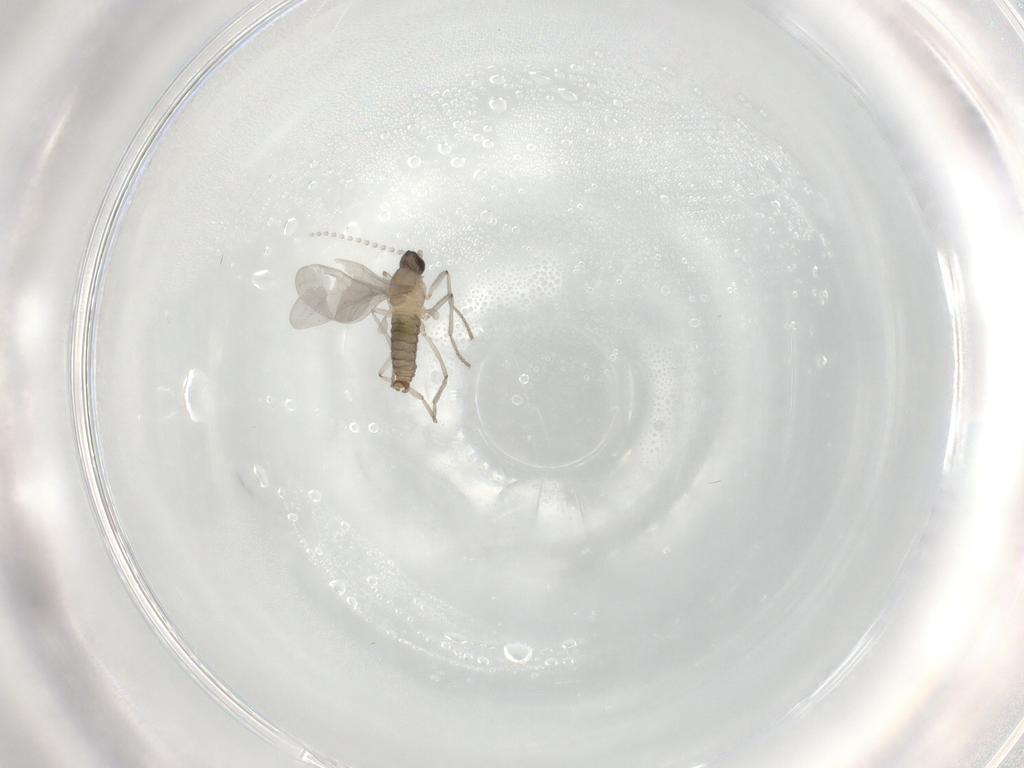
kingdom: Animalia
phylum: Arthropoda
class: Insecta
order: Diptera
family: Cecidomyiidae
